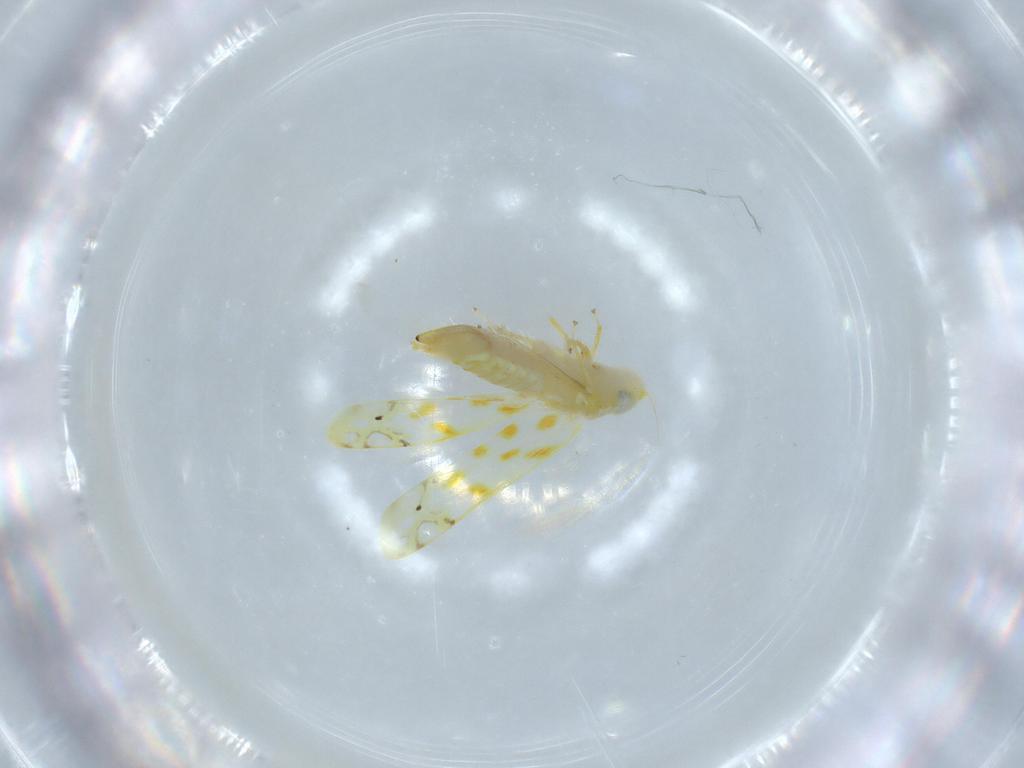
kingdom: Animalia
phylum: Arthropoda
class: Insecta
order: Hemiptera
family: Cicadellidae
